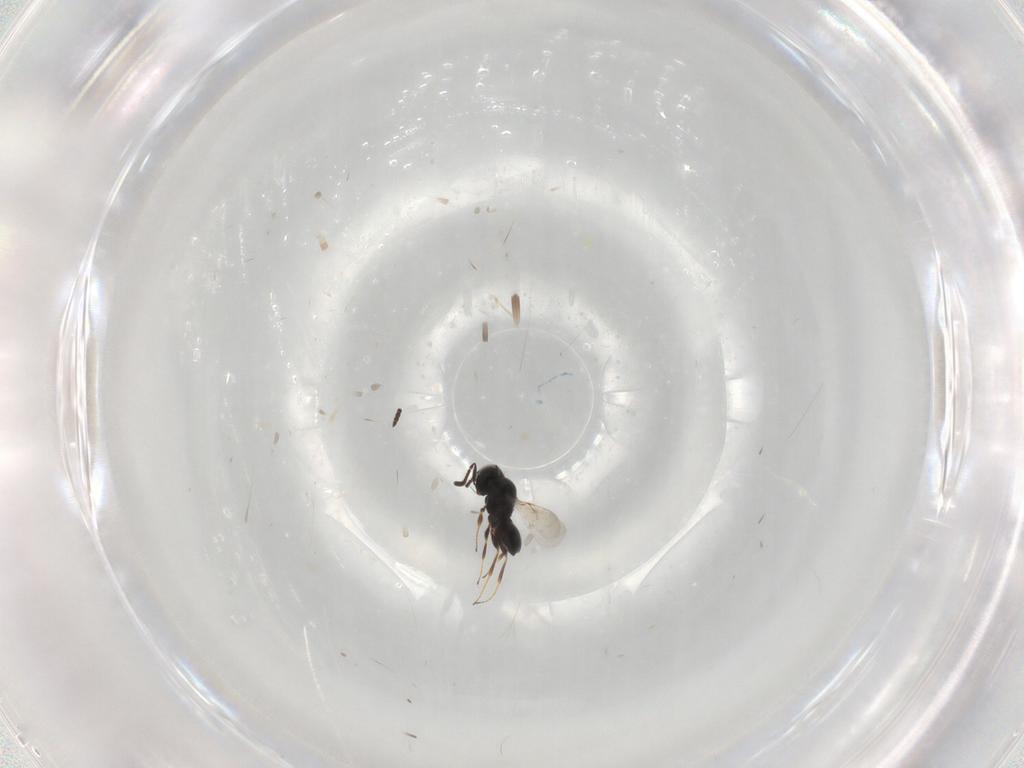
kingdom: Animalia
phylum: Arthropoda
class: Insecta
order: Hymenoptera
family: Scelionidae
